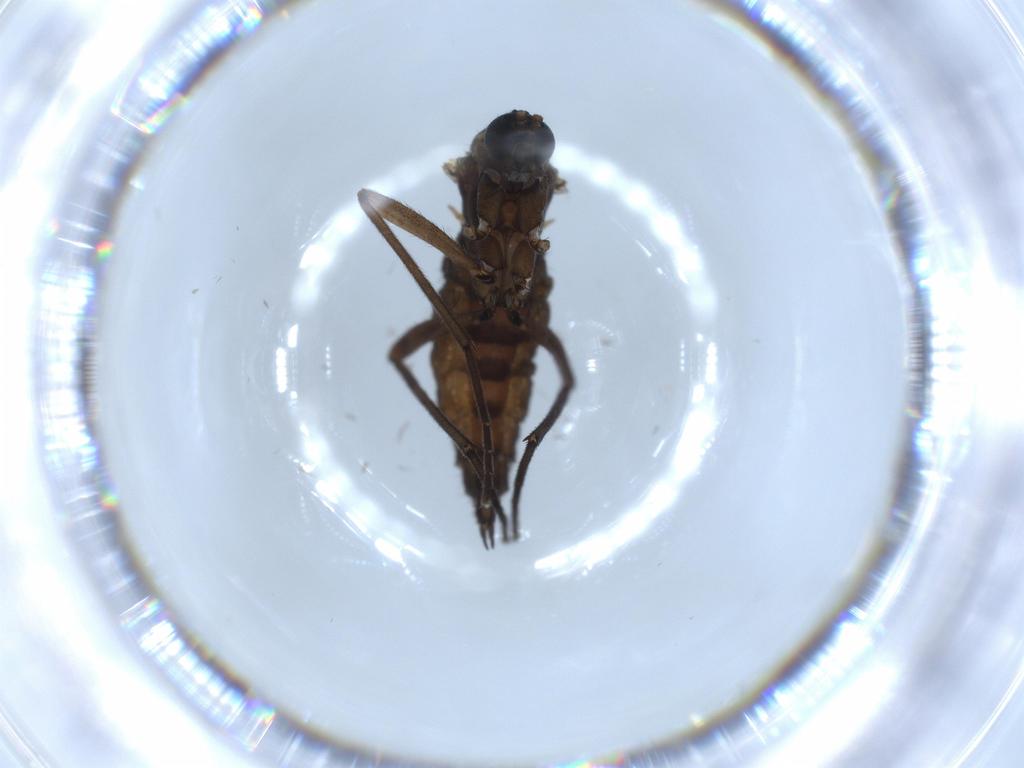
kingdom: Animalia
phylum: Arthropoda
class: Insecta
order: Diptera
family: Sciaridae
